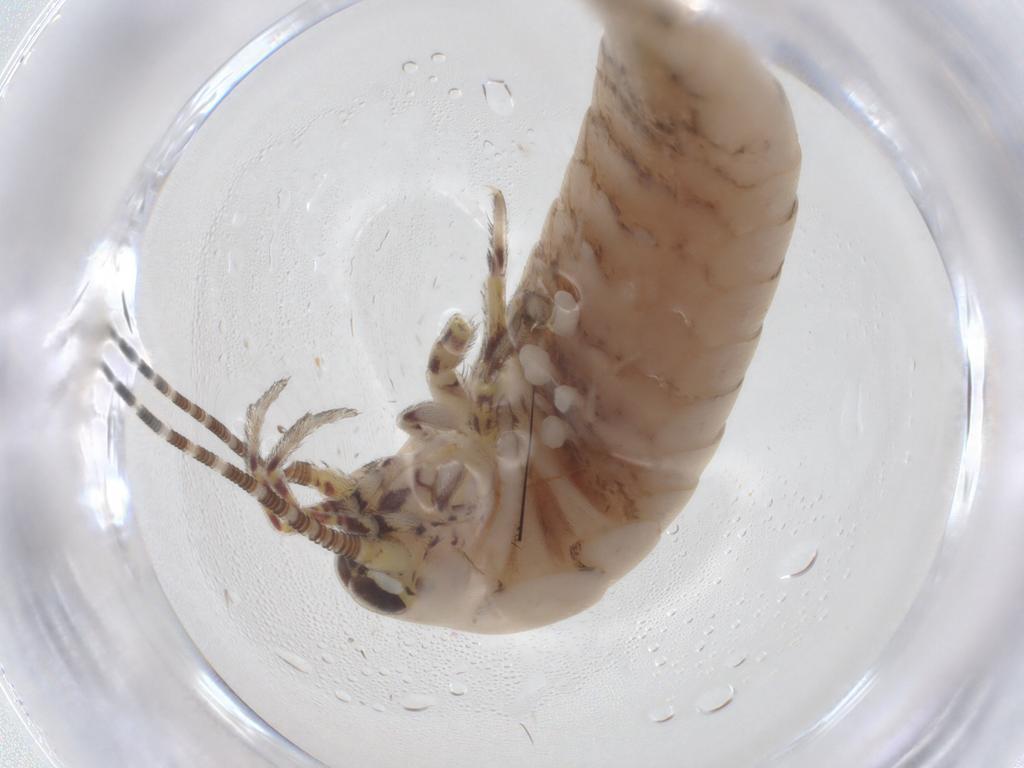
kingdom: Animalia
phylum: Arthropoda
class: Insecta
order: Archaeognatha
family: Meinertellidae
